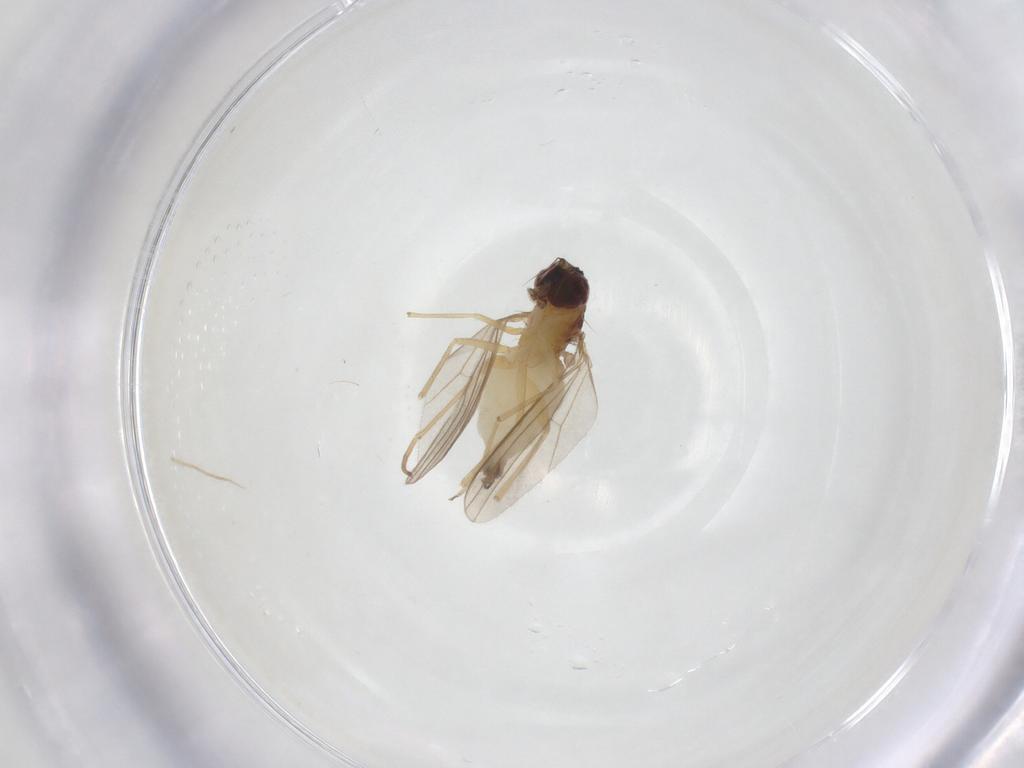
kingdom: Animalia
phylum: Arthropoda
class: Insecta
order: Diptera
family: Dolichopodidae
